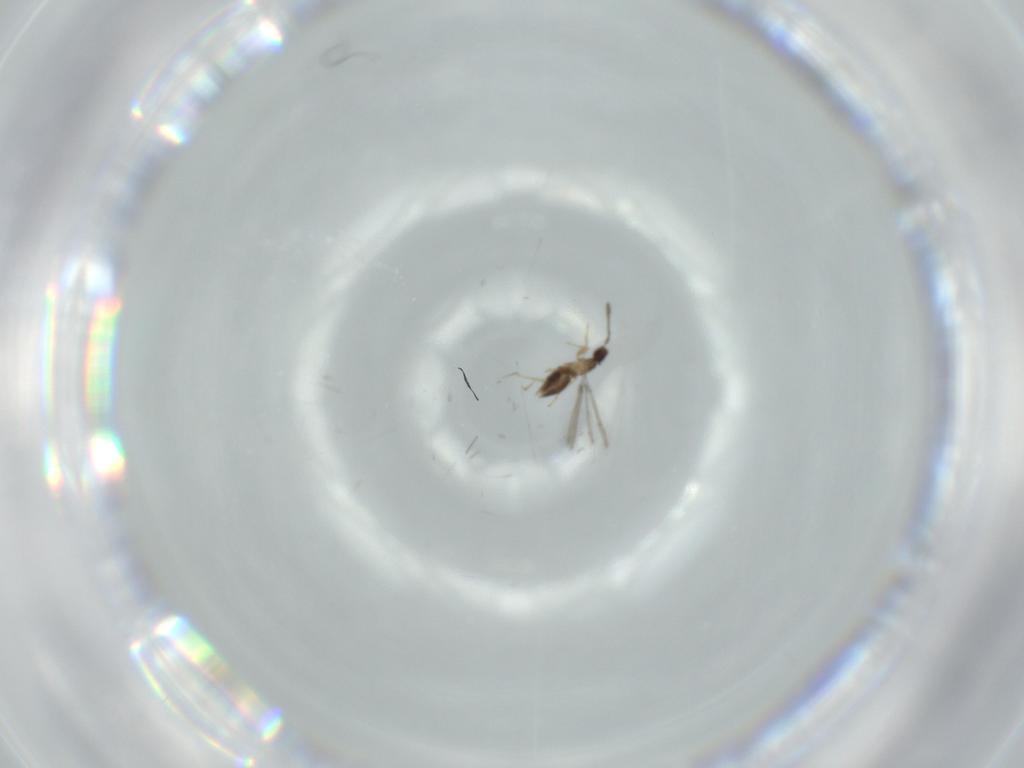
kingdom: Animalia
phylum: Arthropoda
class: Insecta
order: Hymenoptera
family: Mymaridae
